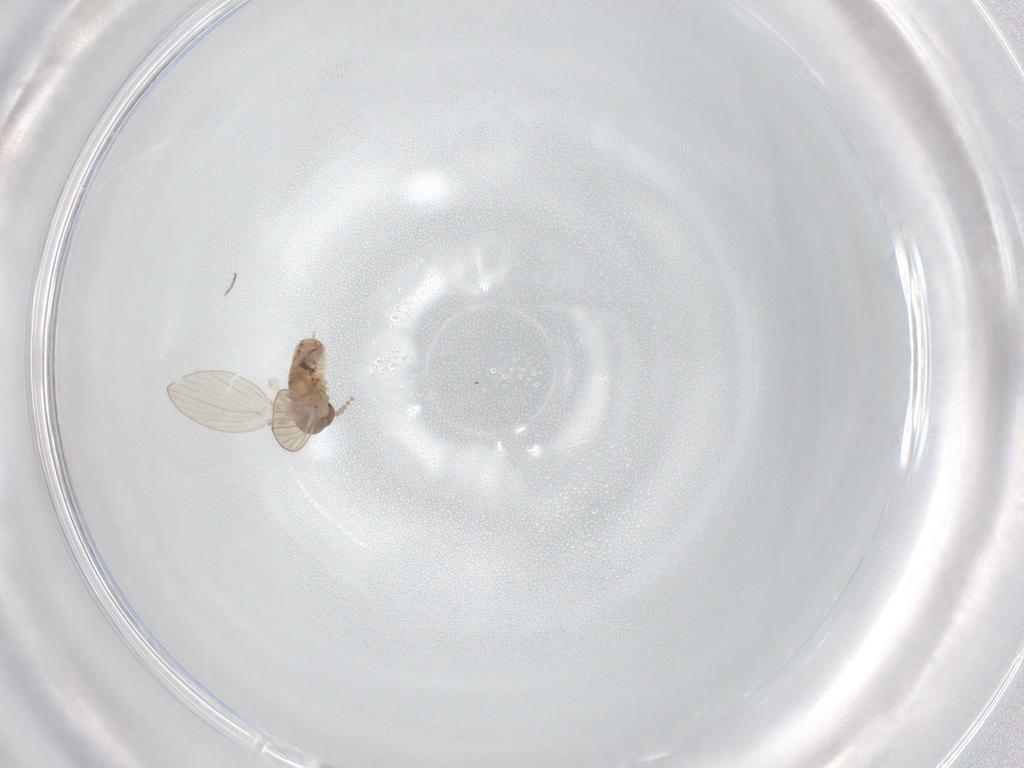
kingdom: Animalia
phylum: Arthropoda
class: Insecta
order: Diptera
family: Ceratopogonidae
